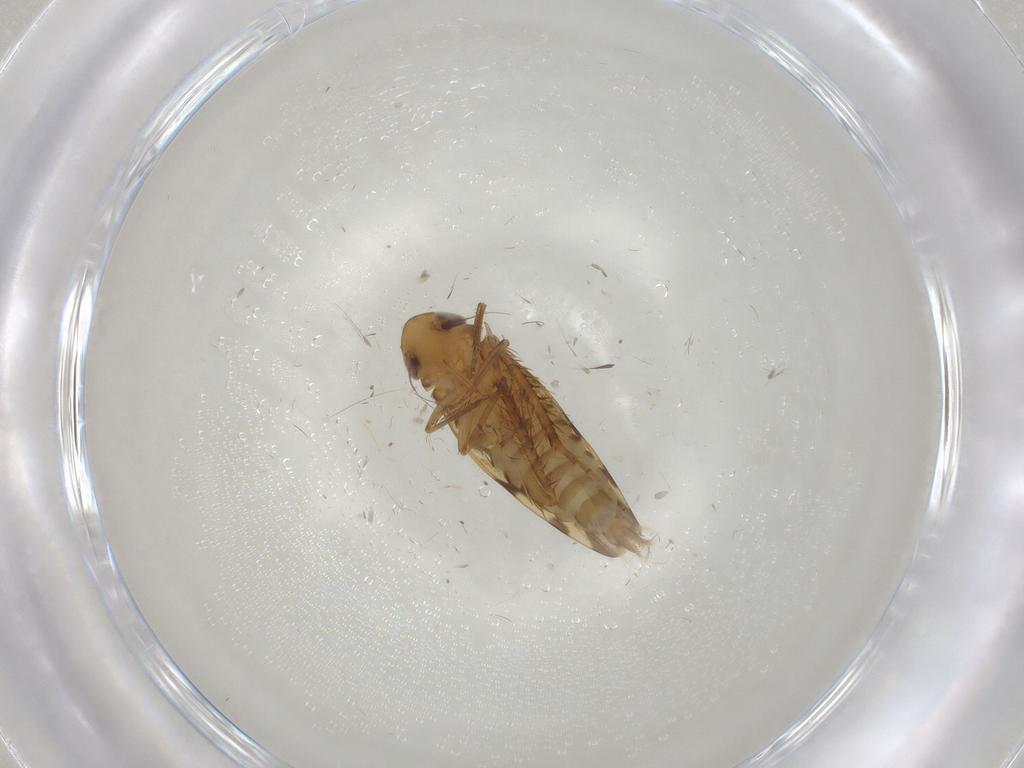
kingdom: Animalia
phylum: Arthropoda
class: Insecta
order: Hemiptera
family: Cicadellidae
